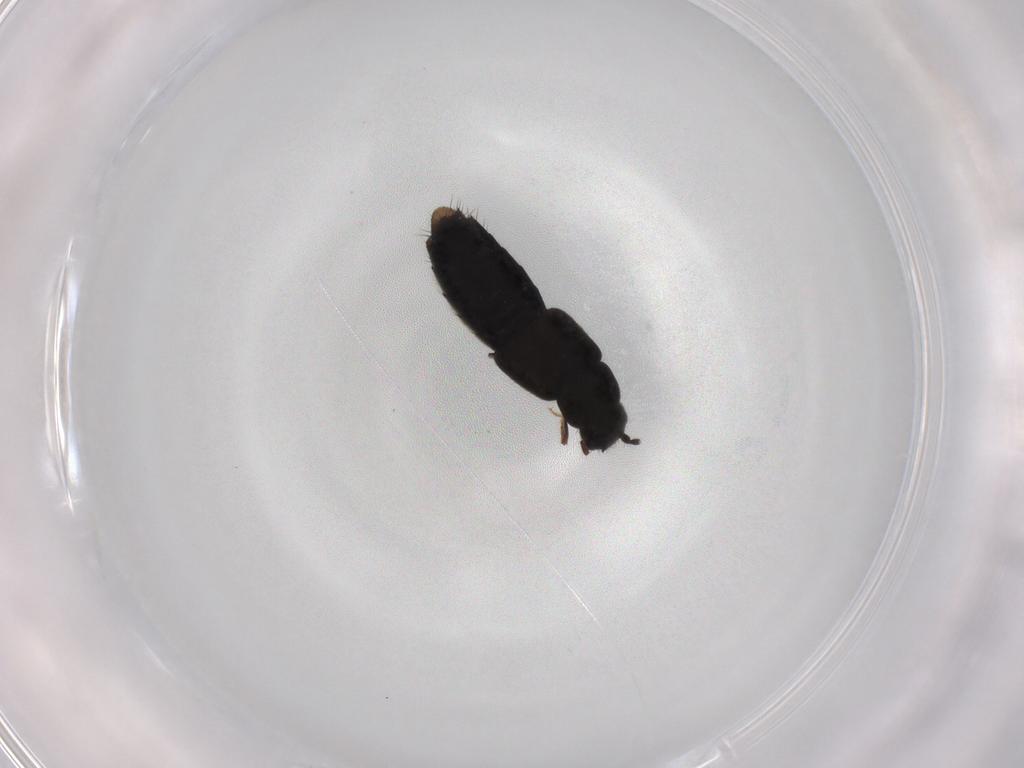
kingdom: Animalia
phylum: Arthropoda
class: Insecta
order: Coleoptera
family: Staphylinidae
